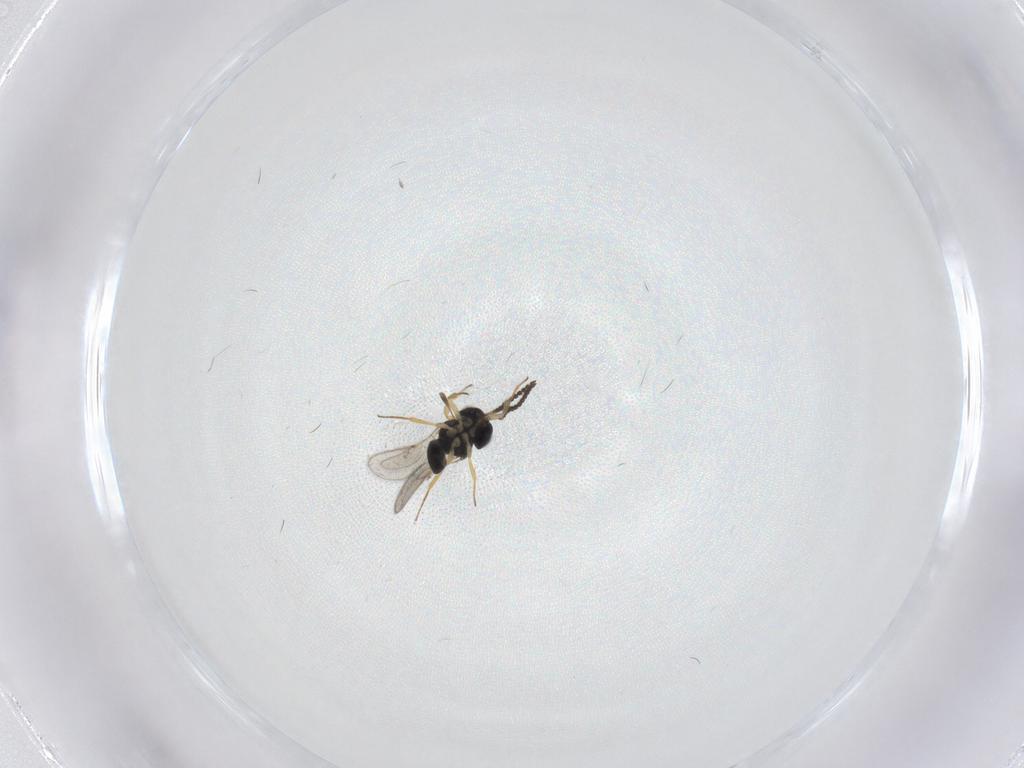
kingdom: Animalia
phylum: Arthropoda
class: Insecta
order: Hymenoptera
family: Scelionidae
